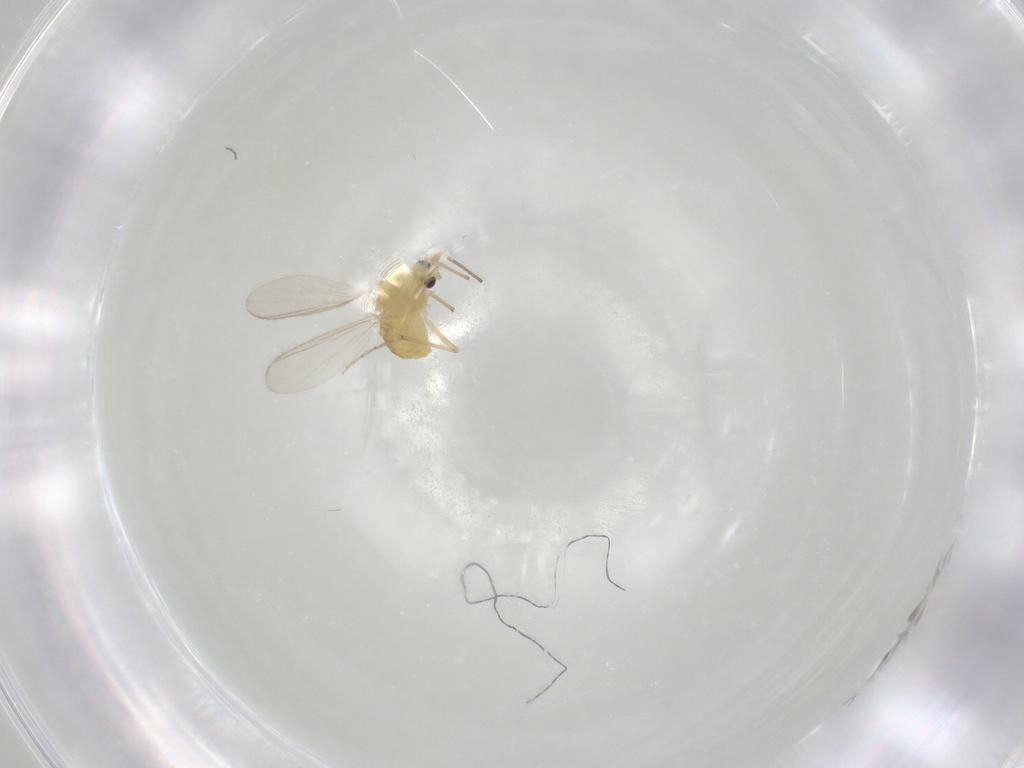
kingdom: Animalia
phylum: Arthropoda
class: Insecta
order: Diptera
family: Chironomidae
